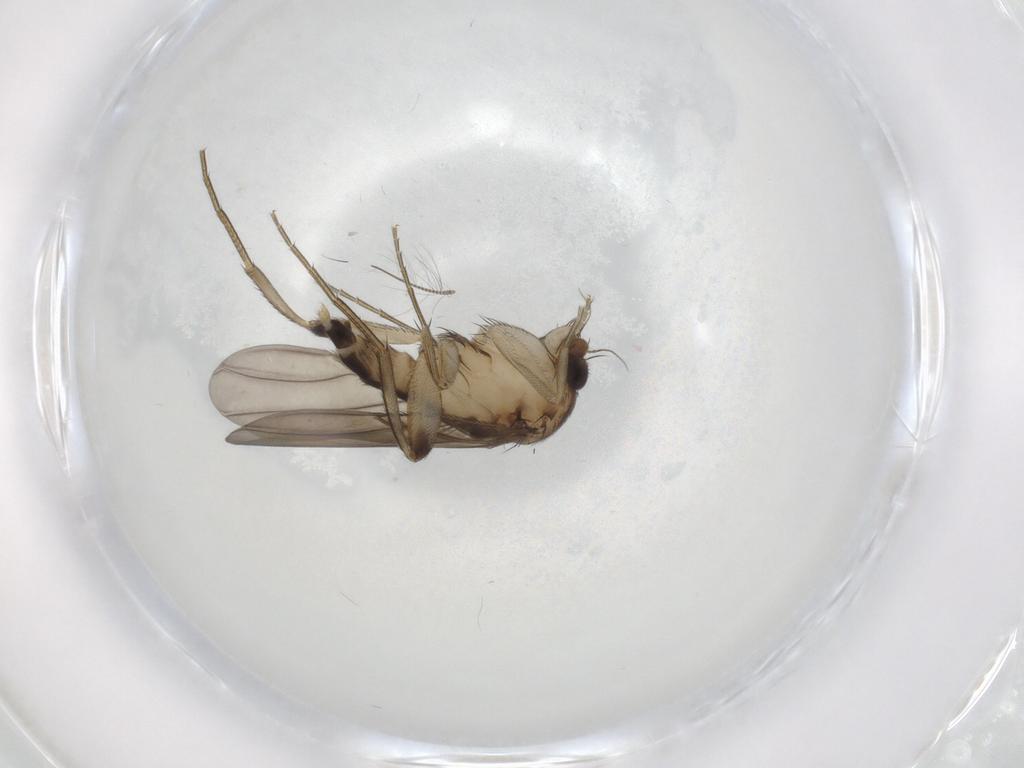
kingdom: Animalia
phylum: Arthropoda
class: Insecta
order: Diptera
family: Phoridae
